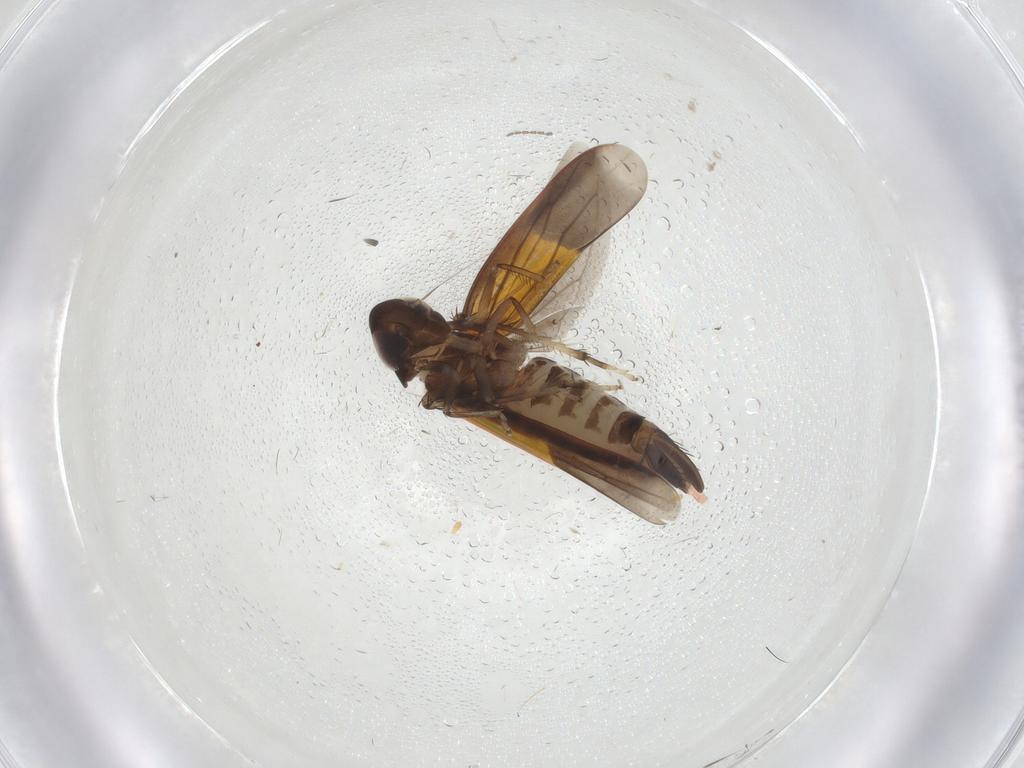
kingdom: Animalia
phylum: Arthropoda
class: Insecta
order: Hemiptera
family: Cicadellidae
